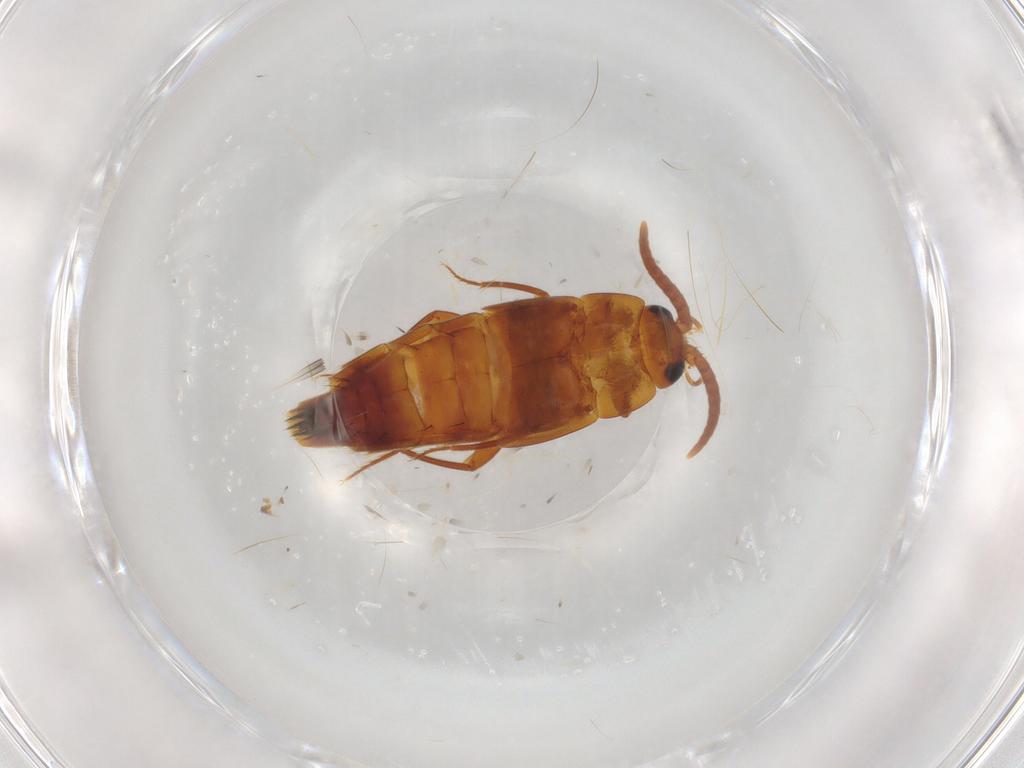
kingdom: Animalia
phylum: Arthropoda
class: Insecta
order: Coleoptera
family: Staphylinidae
